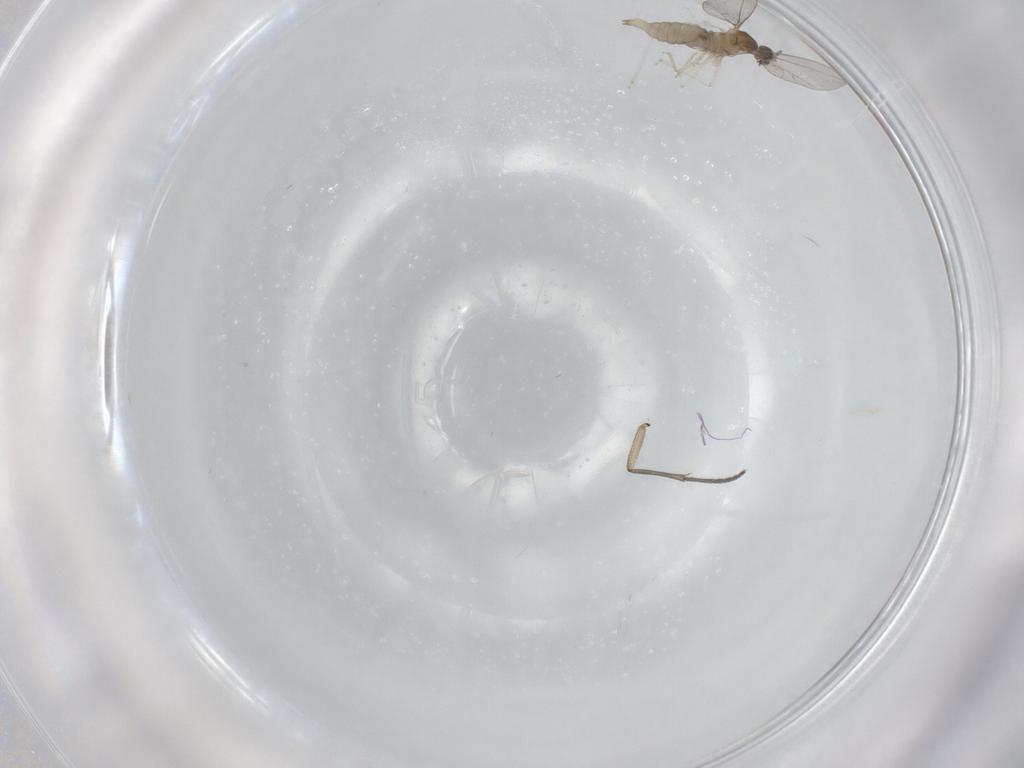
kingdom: Animalia
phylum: Arthropoda
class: Insecta
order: Diptera
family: Cecidomyiidae
